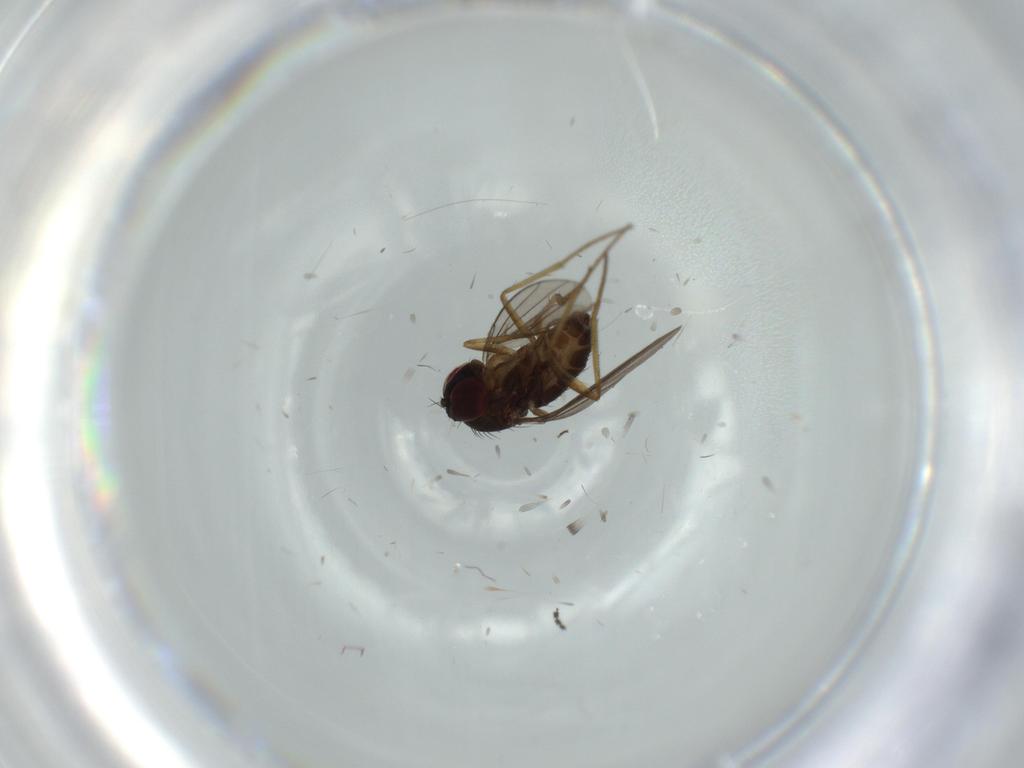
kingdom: Animalia
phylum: Arthropoda
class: Insecta
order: Diptera
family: Dolichopodidae
